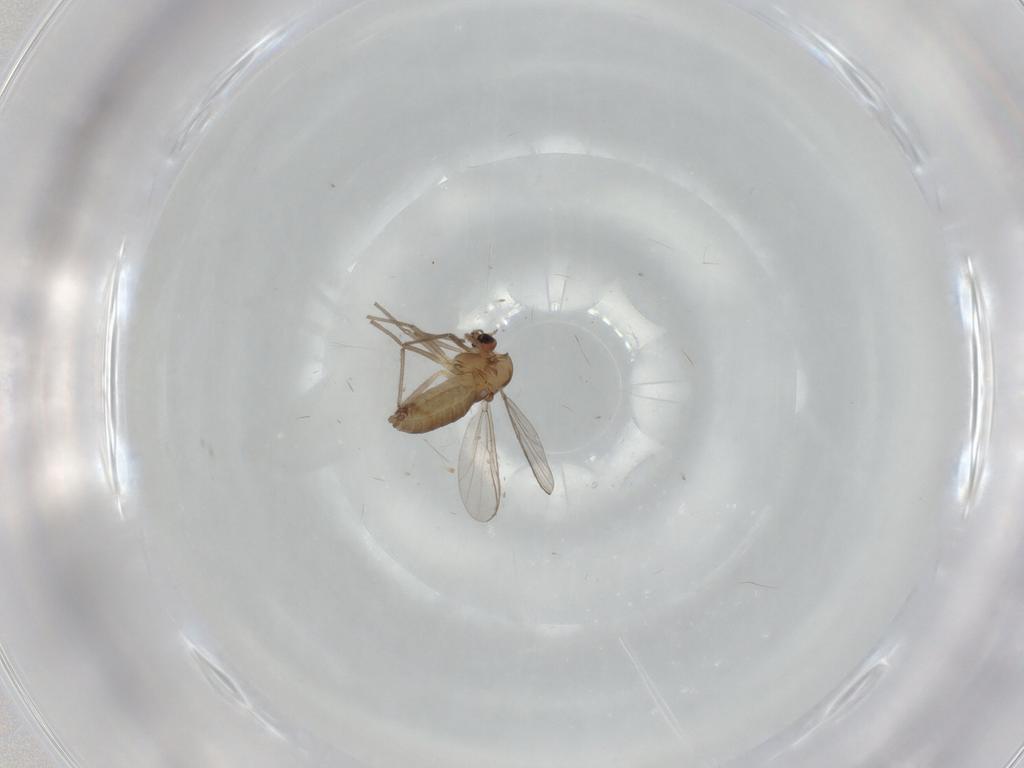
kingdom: Animalia
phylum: Arthropoda
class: Insecta
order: Diptera
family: Chironomidae
